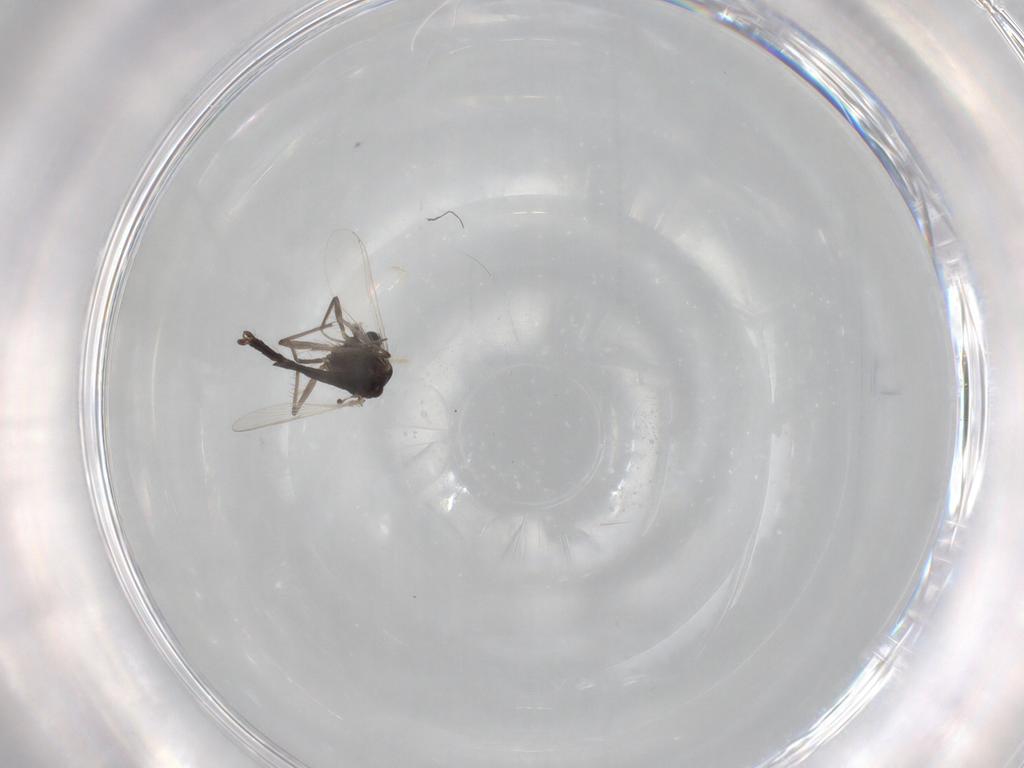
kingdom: Animalia
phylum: Arthropoda
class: Insecta
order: Diptera
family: Chironomidae
